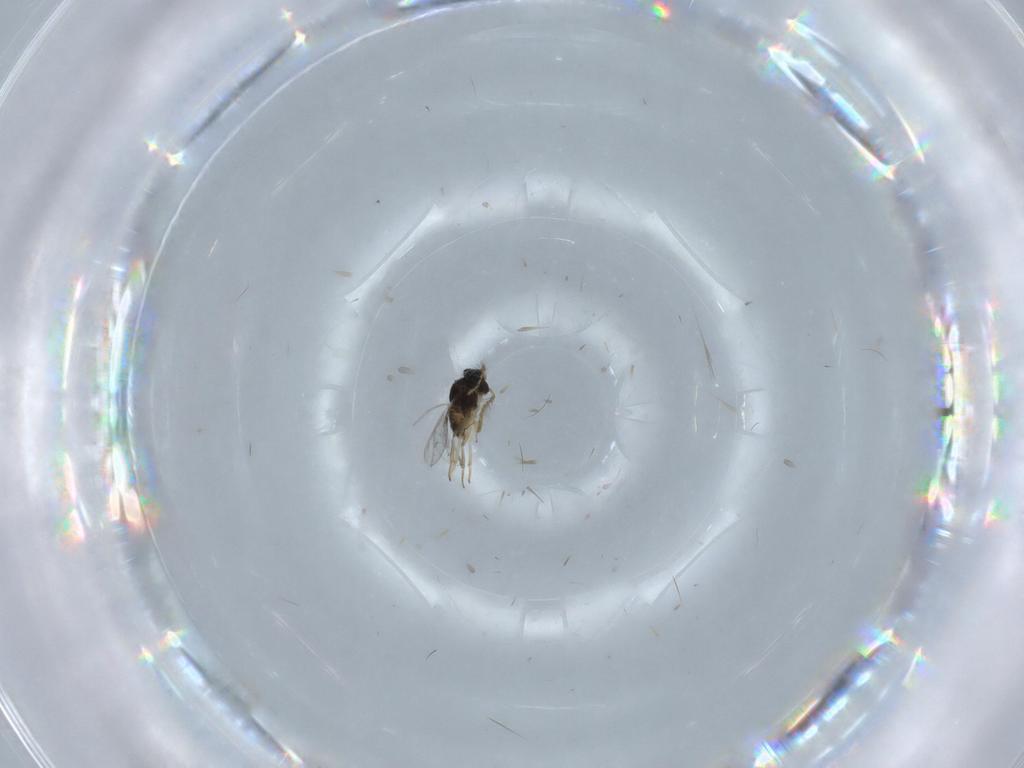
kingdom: Animalia
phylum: Arthropoda
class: Insecta
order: Hymenoptera
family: Encyrtidae
